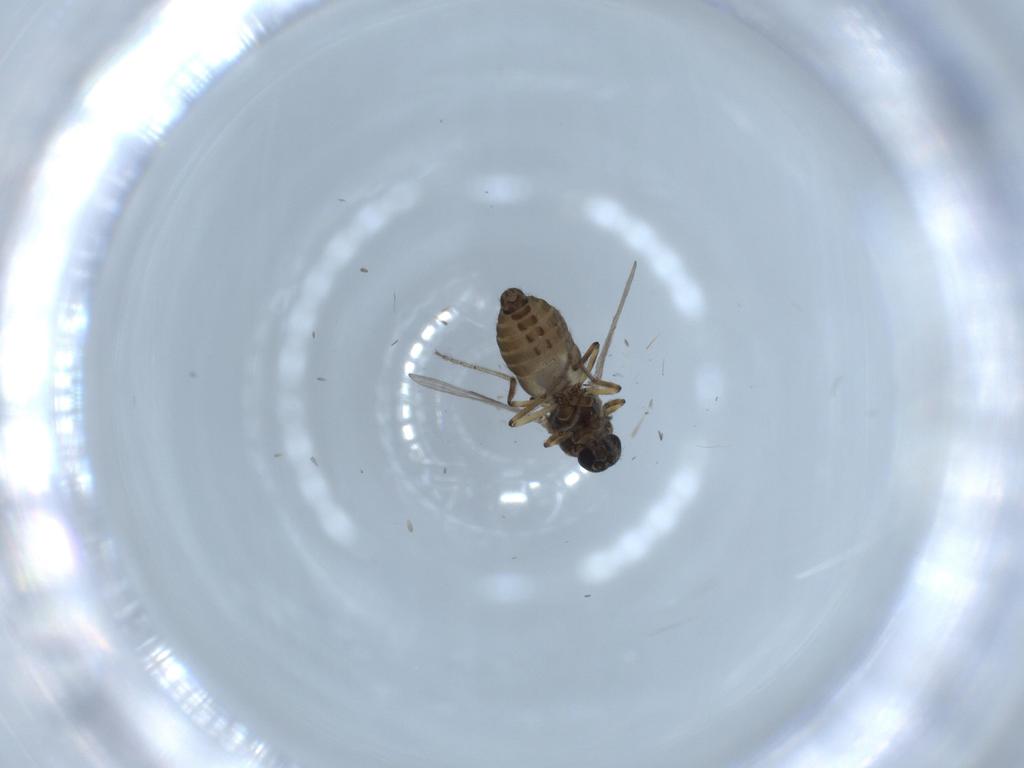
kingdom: Animalia
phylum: Arthropoda
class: Insecta
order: Diptera
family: Ceratopogonidae
